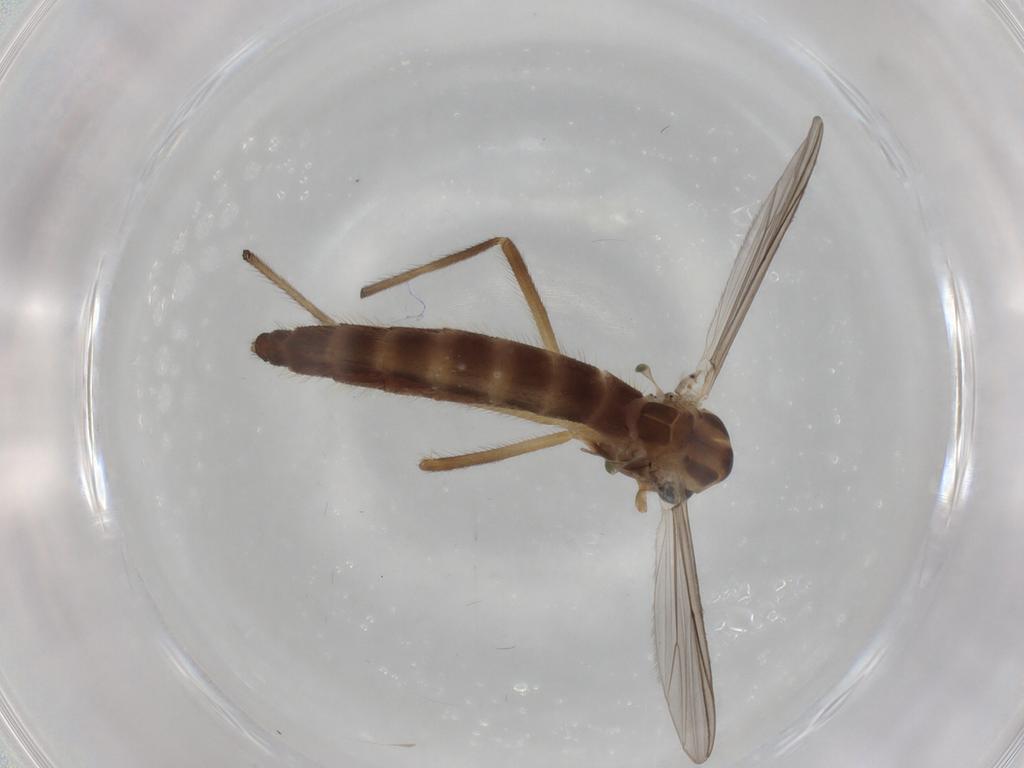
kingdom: Animalia
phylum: Arthropoda
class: Insecta
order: Diptera
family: Chironomidae
